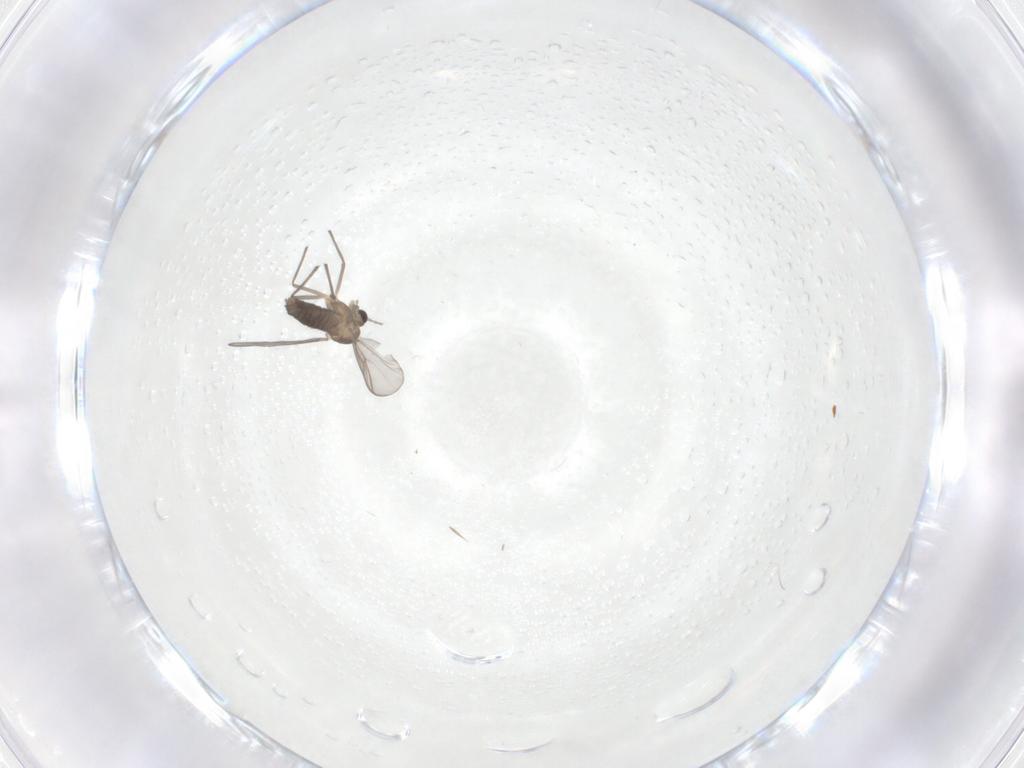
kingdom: Animalia
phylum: Arthropoda
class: Insecta
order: Diptera
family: Chironomidae
